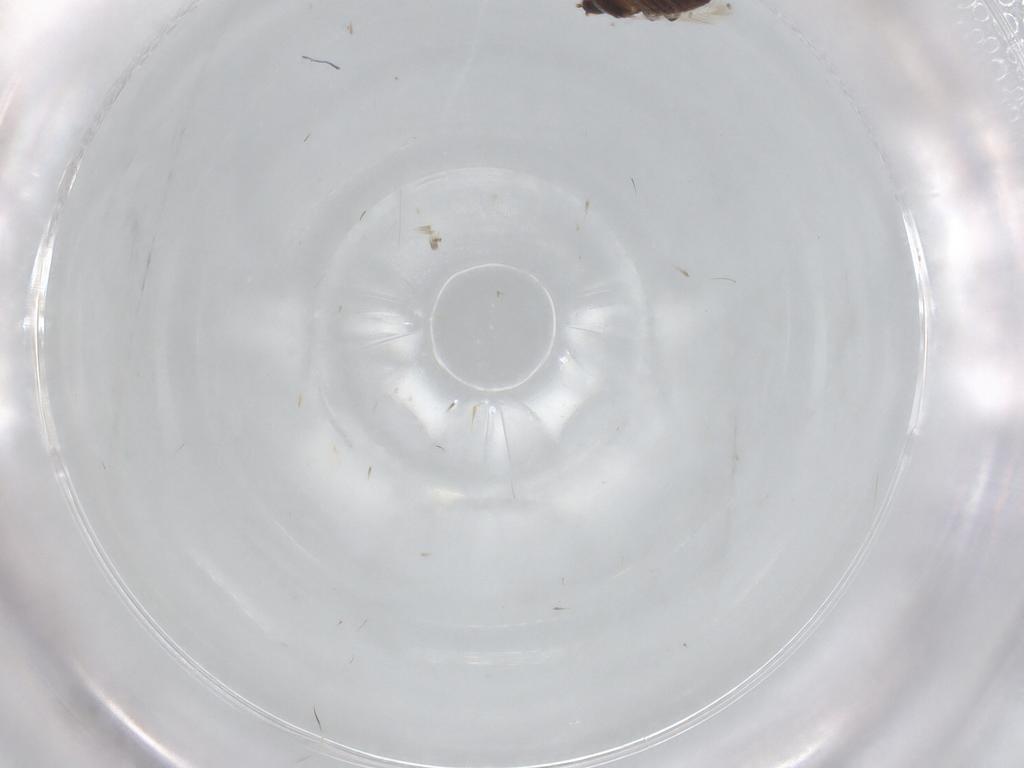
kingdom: Animalia
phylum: Arthropoda
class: Insecta
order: Thysanoptera
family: Phlaeothripidae
